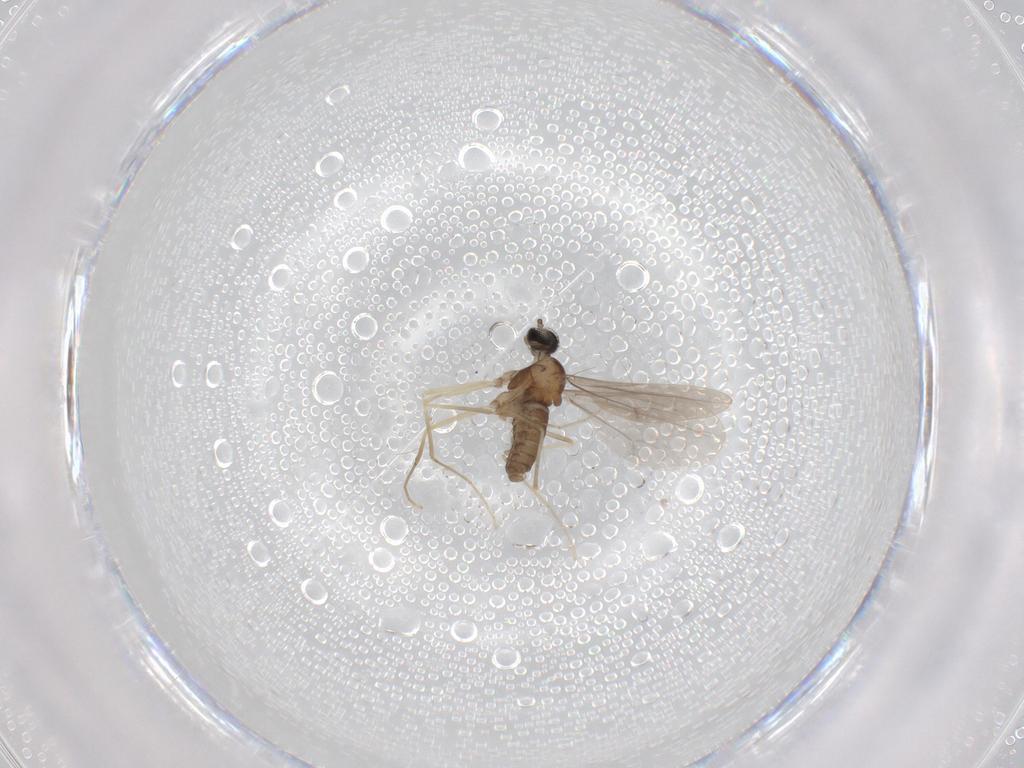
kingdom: Animalia
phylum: Arthropoda
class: Insecta
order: Diptera
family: Cecidomyiidae
